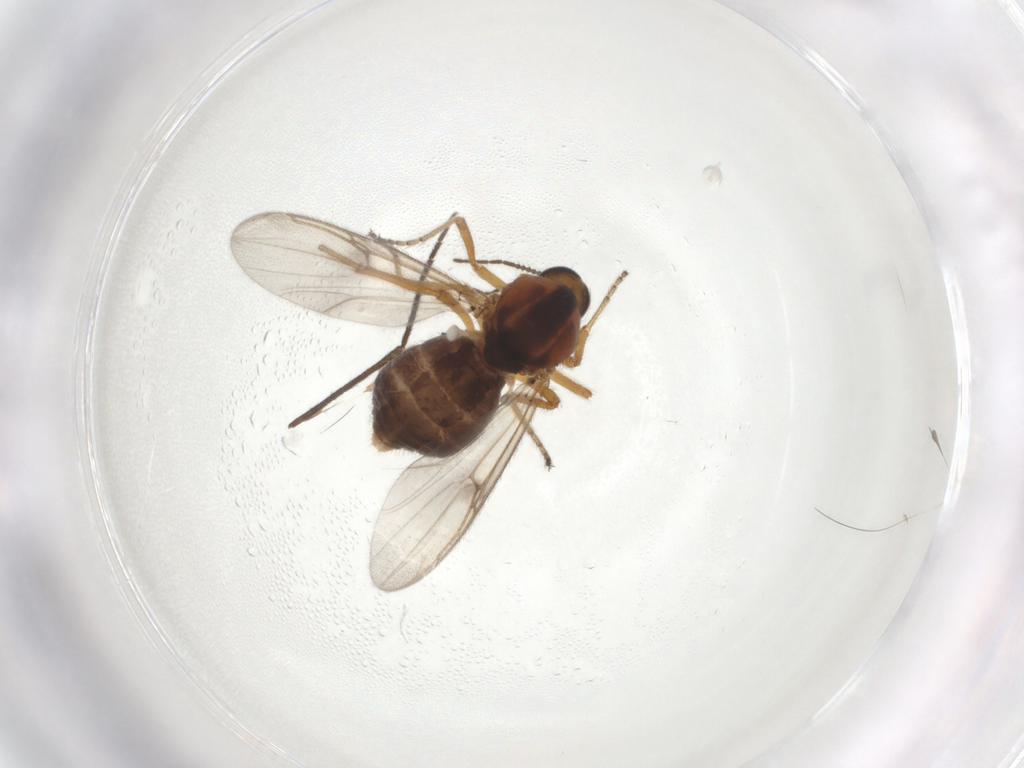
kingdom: Animalia
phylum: Arthropoda
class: Insecta
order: Diptera
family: Ceratopogonidae
